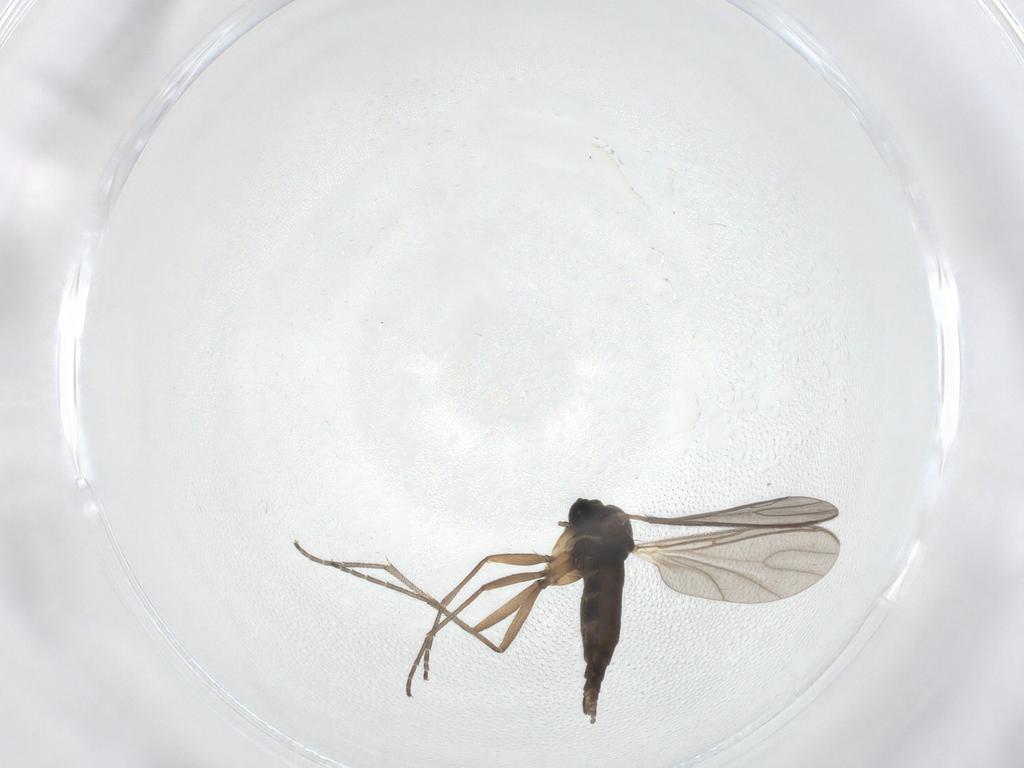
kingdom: Animalia
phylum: Arthropoda
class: Insecta
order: Diptera
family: Sciaridae
